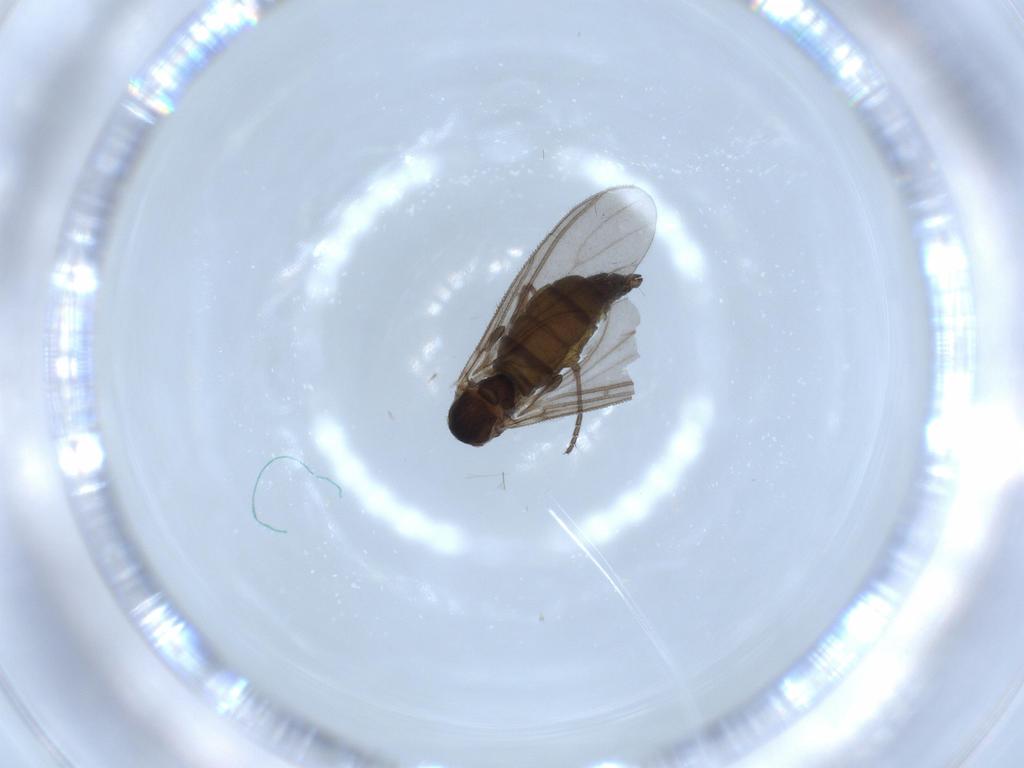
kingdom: Animalia
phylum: Arthropoda
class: Insecta
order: Diptera
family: Sciaridae
